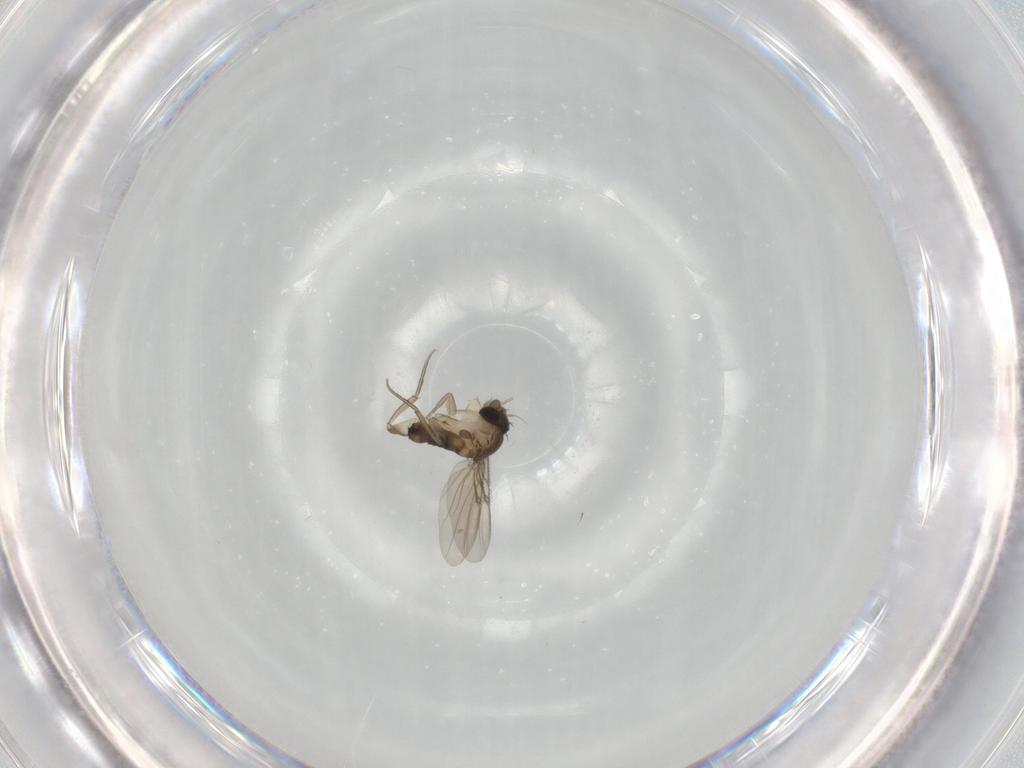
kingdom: Animalia
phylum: Arthropoda
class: Insecta
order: Diptera
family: Phoridae
